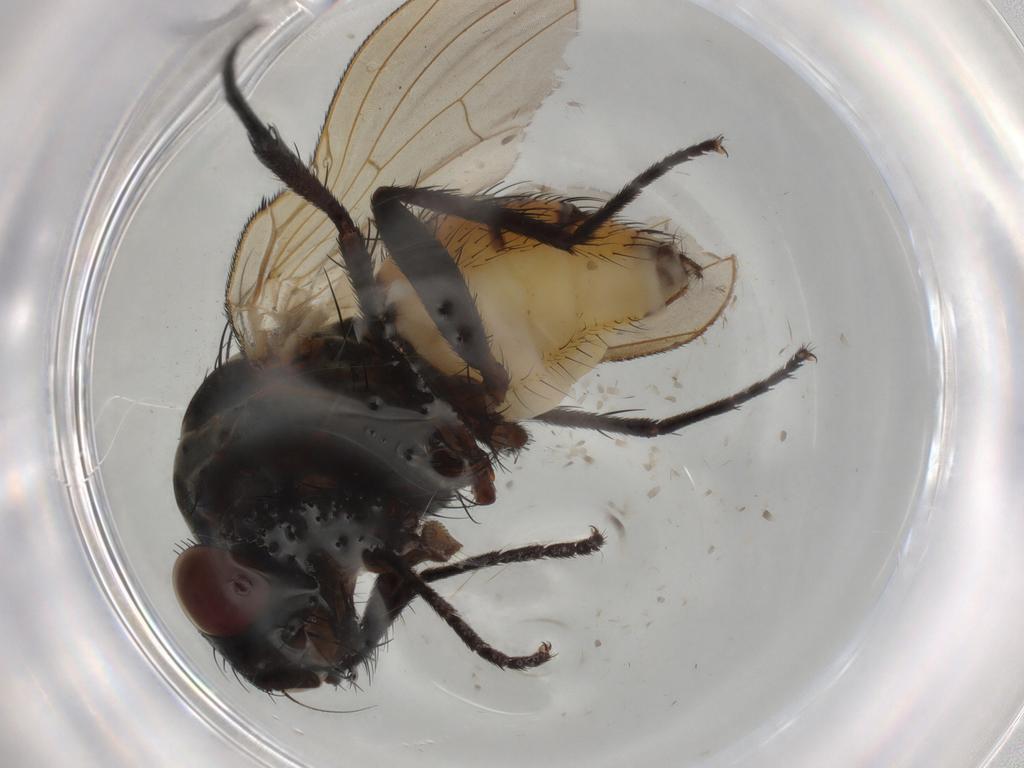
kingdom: Animalia
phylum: Arthropoda
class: Insecta
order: Diptera
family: Anthomyiidae
